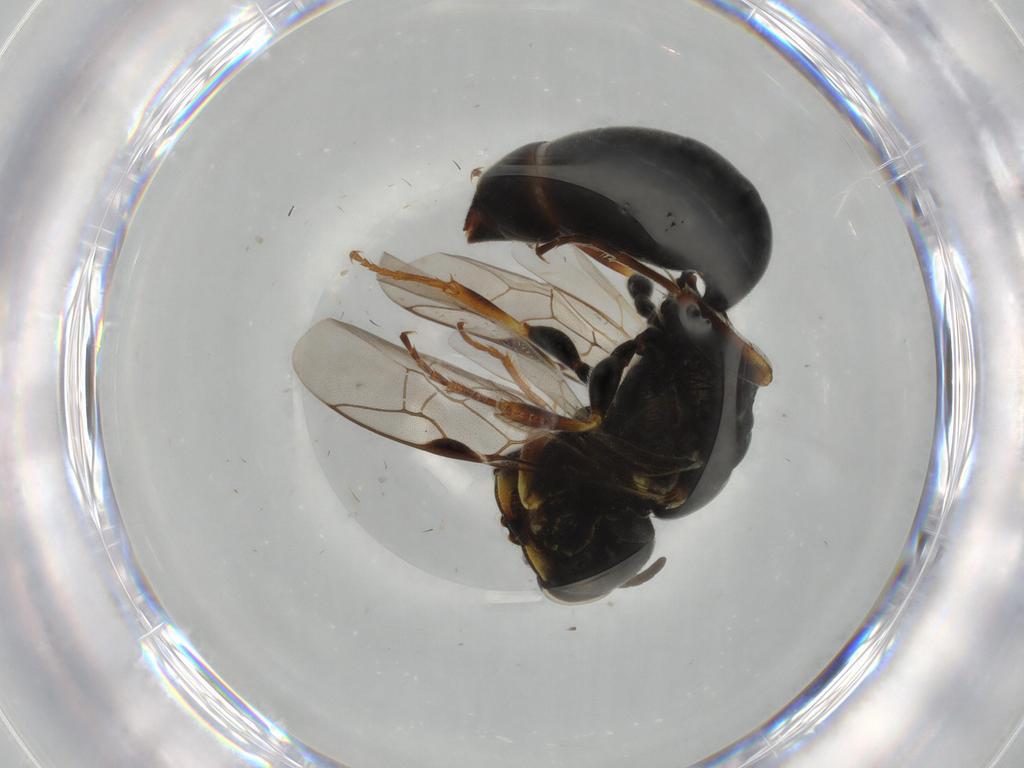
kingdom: Animalia
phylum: Arthropoda
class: Insecta
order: Hymenoptera
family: Crabronidae
